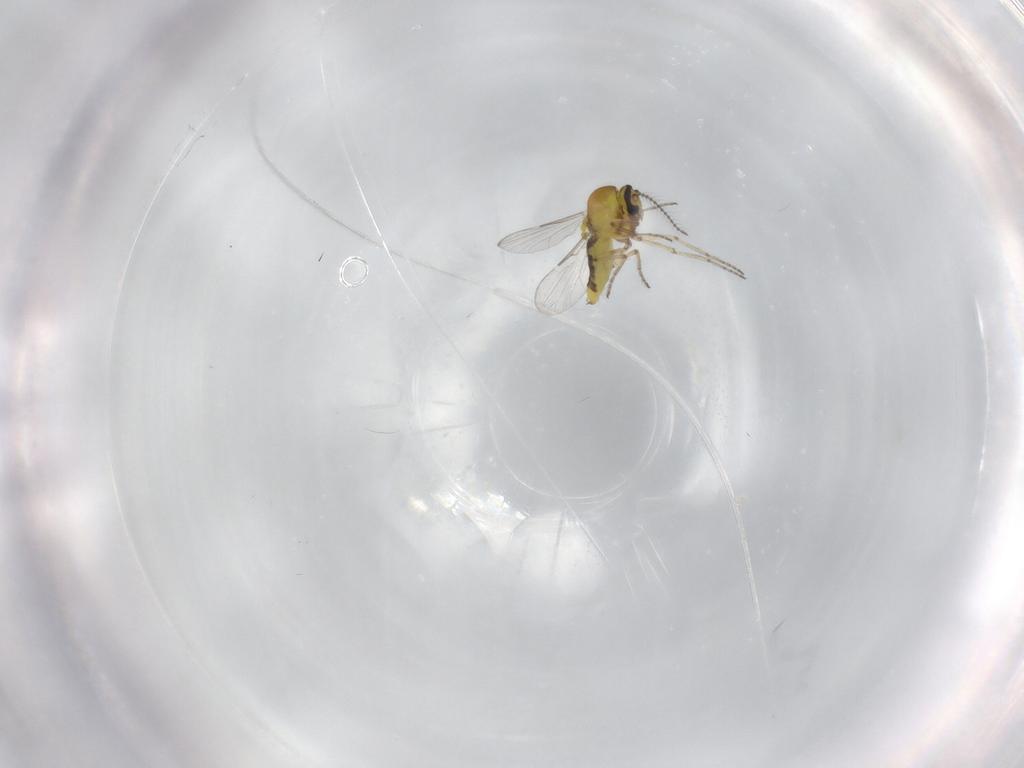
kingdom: Animalia
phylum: Arthropoda
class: Insecta
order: Diptera
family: Ceratopogonidae
